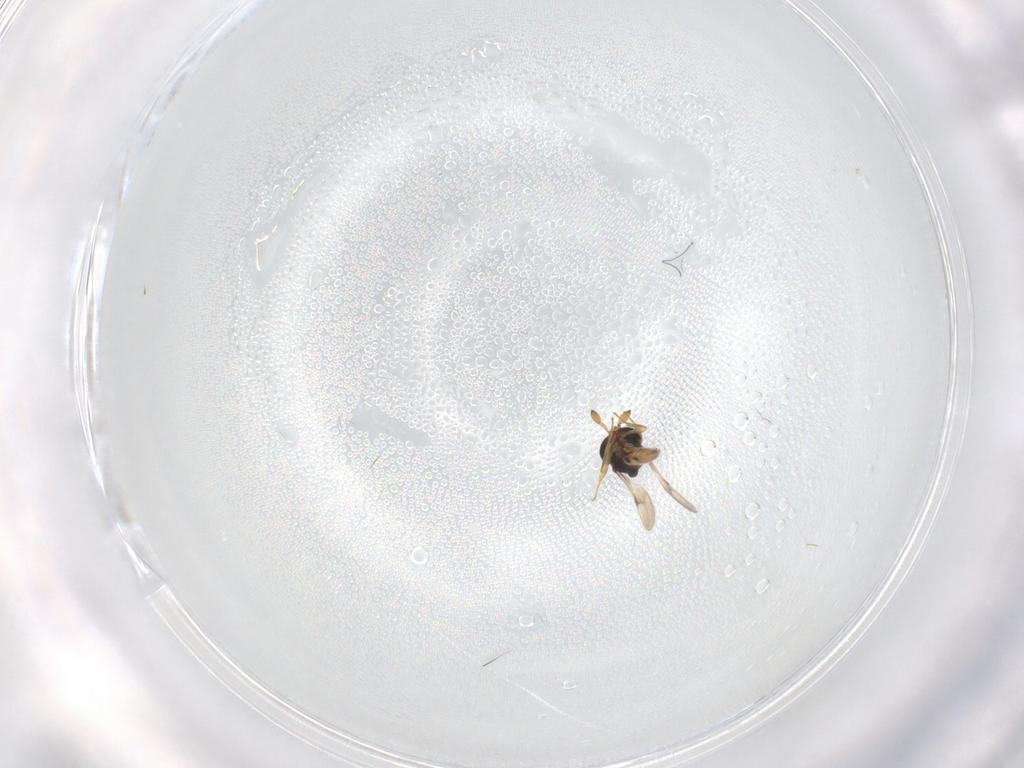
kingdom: Animalia
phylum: Arthropoda
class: Insecta
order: Hymenoptera
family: Scelionidae
